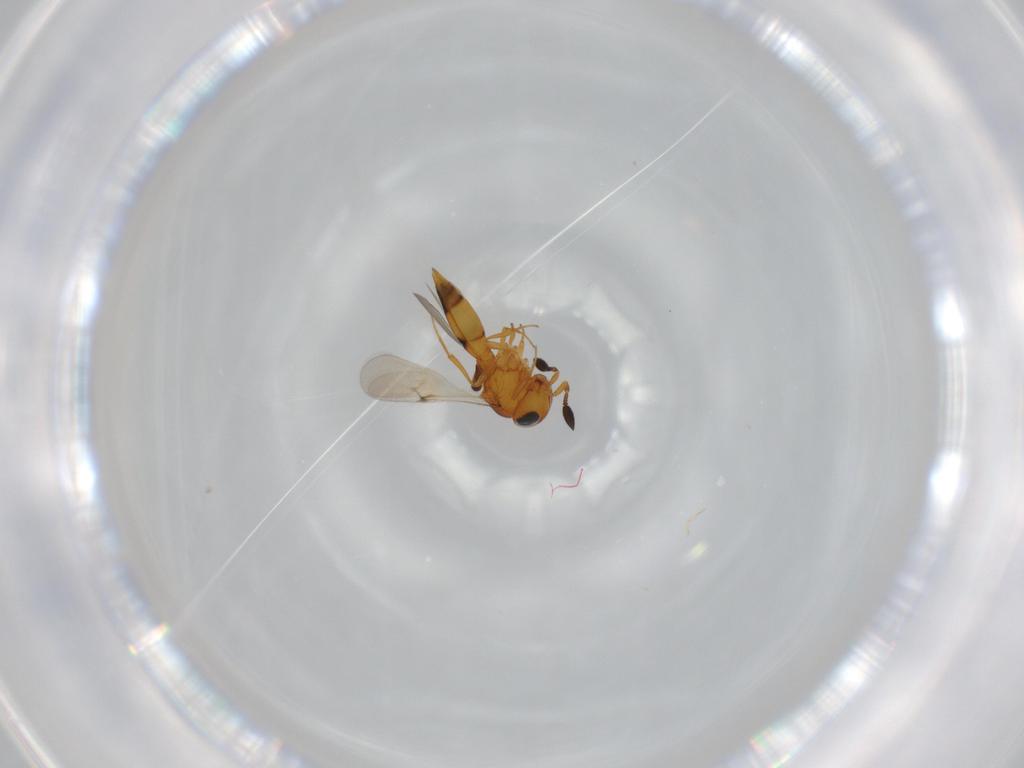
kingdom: Animalia
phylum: Arthropoda
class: Insecta
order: Hymenoptera
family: Scelionidae
